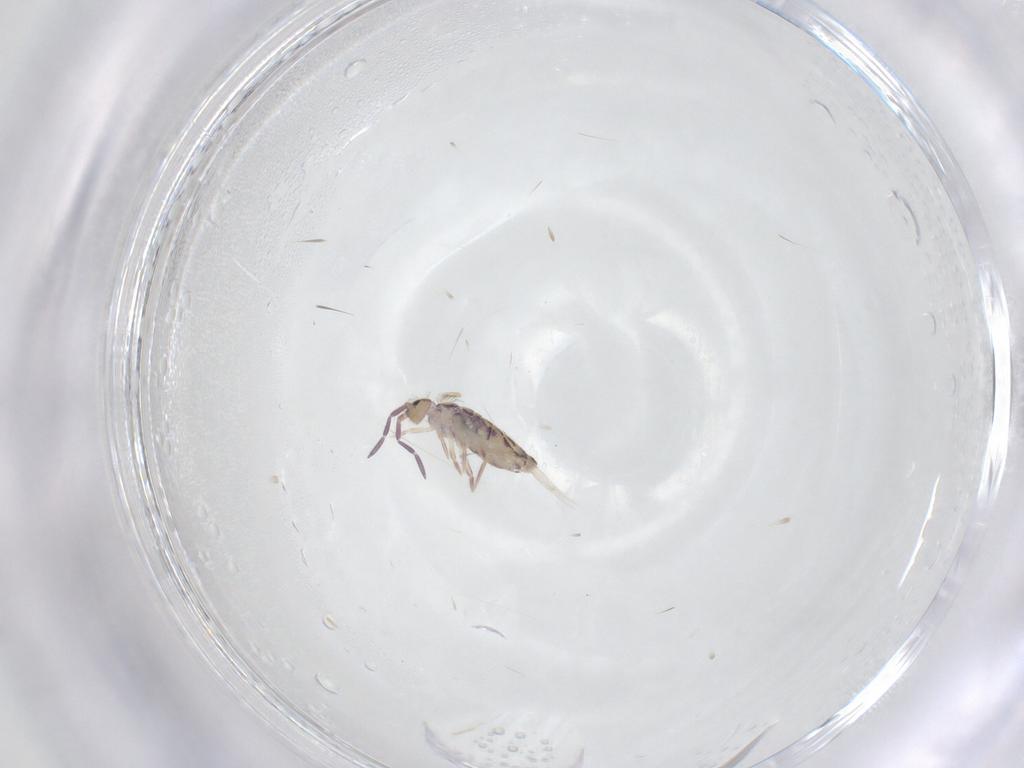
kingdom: Animalia
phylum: Arthropoda
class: Collembola
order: Entomobryomorpha
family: Entomobryidae
